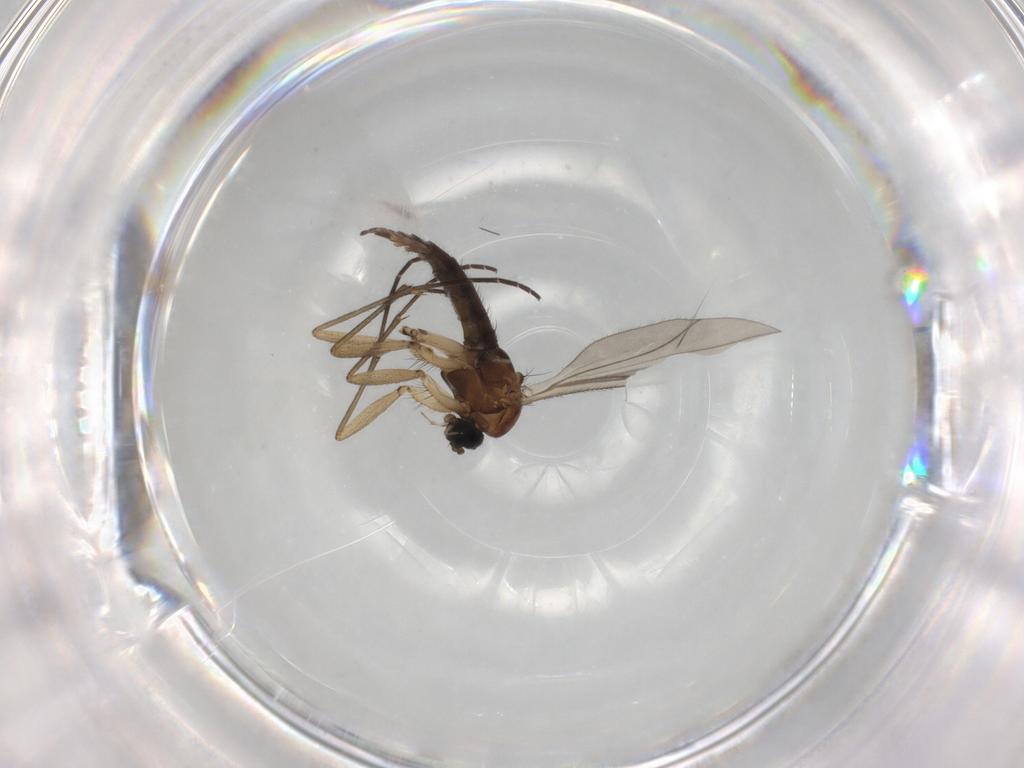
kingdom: Animalia
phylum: Arthropoda
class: Insecta
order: Diptera
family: Sciaridae
